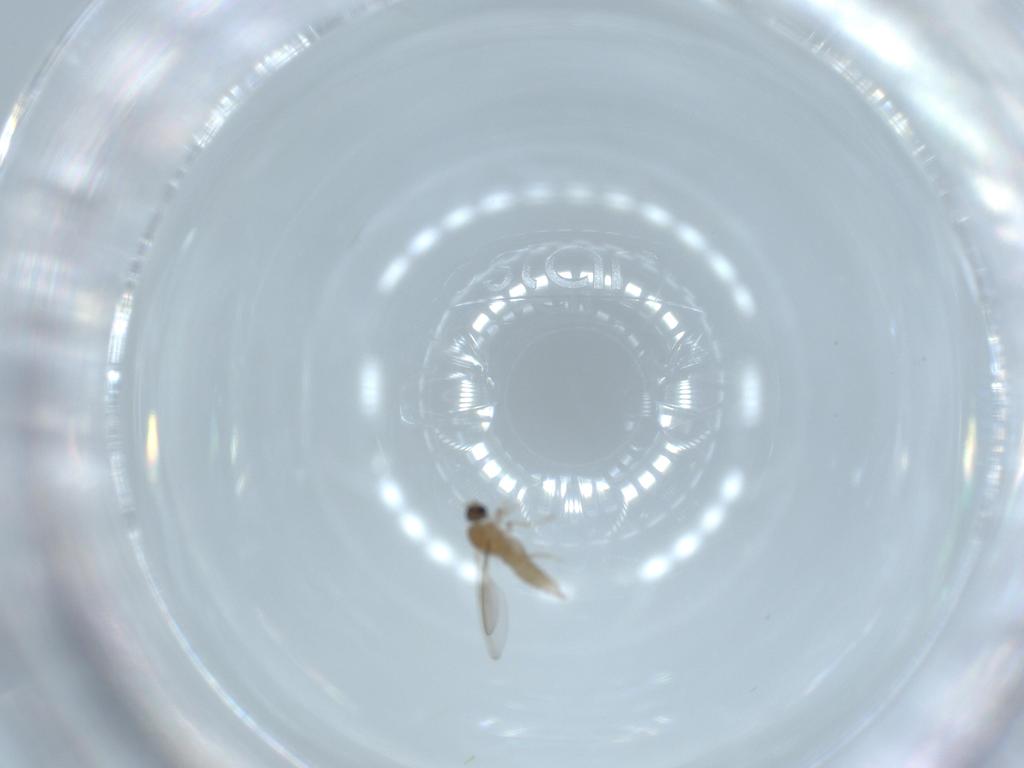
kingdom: Animalia
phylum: Arthropoda
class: Insecta
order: Diptera
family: Cecidomyiidae
